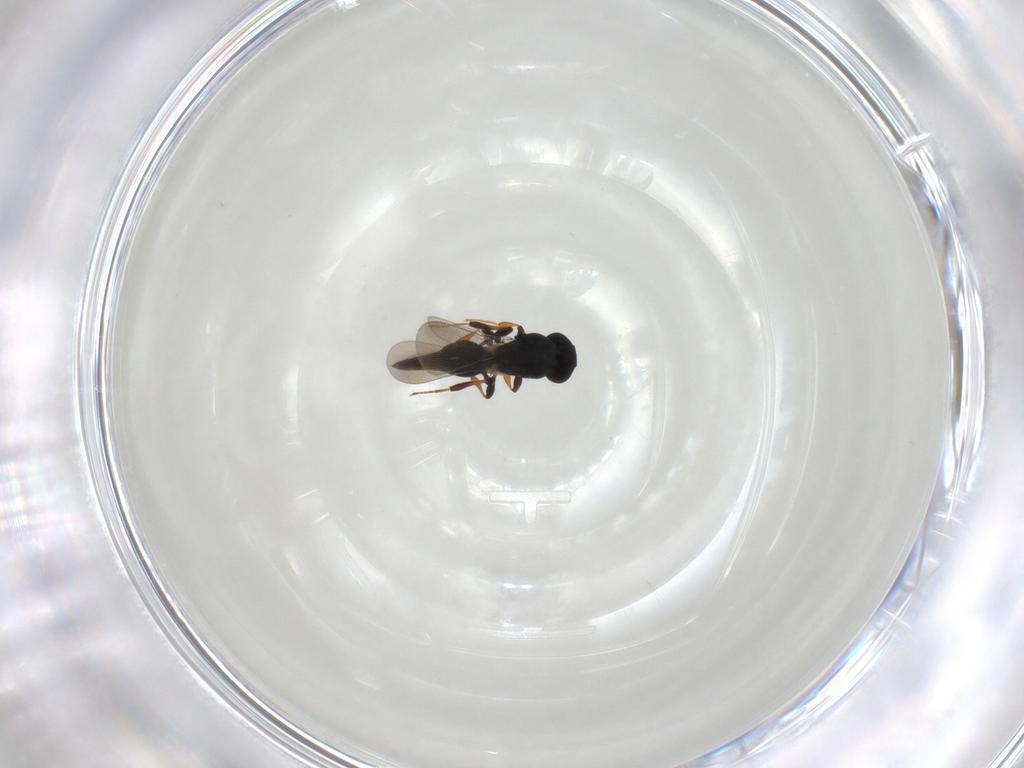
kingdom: Animalia
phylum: Arthropoda
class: Insecta
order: Hymenoptera
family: Platygastridae
